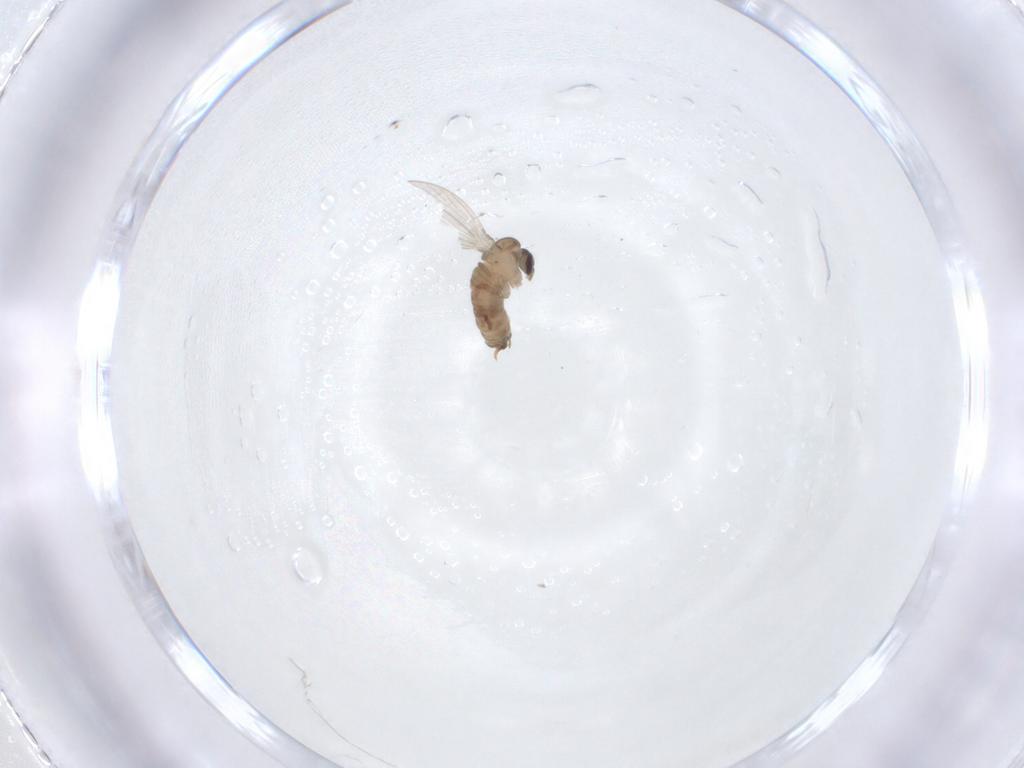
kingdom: Animalia
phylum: Arthropoda
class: Insecta
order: Diptera
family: Psychodidae
